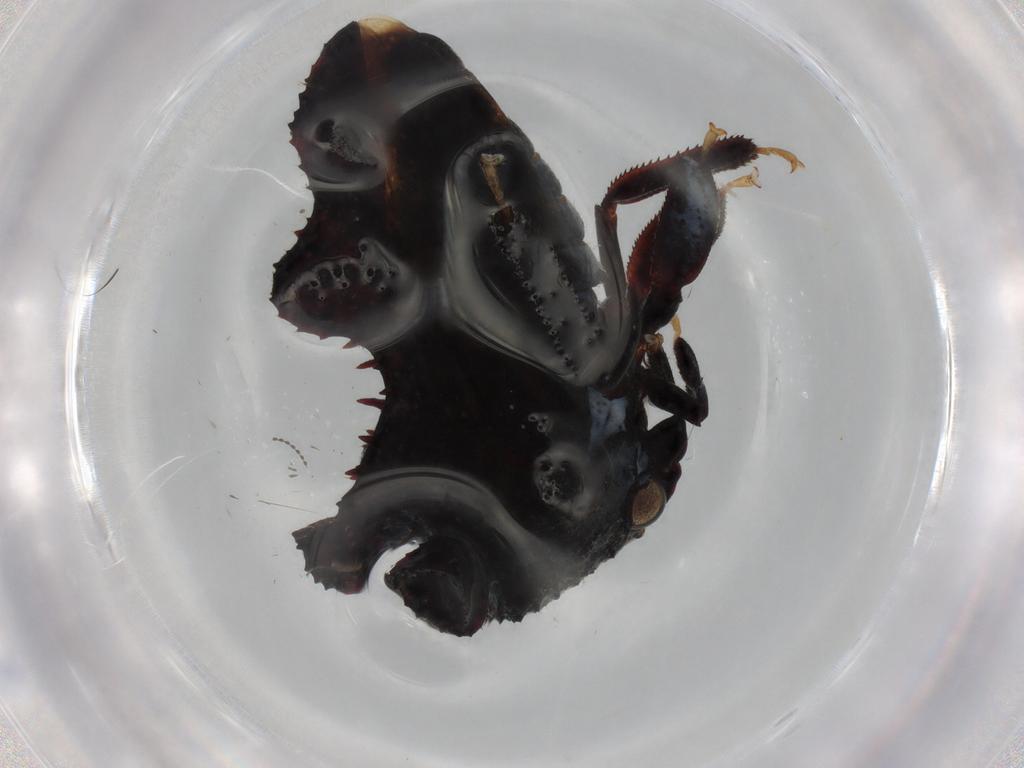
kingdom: Animalia
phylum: Arthropoda
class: Insecta
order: Hemiptera
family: Membracidae
